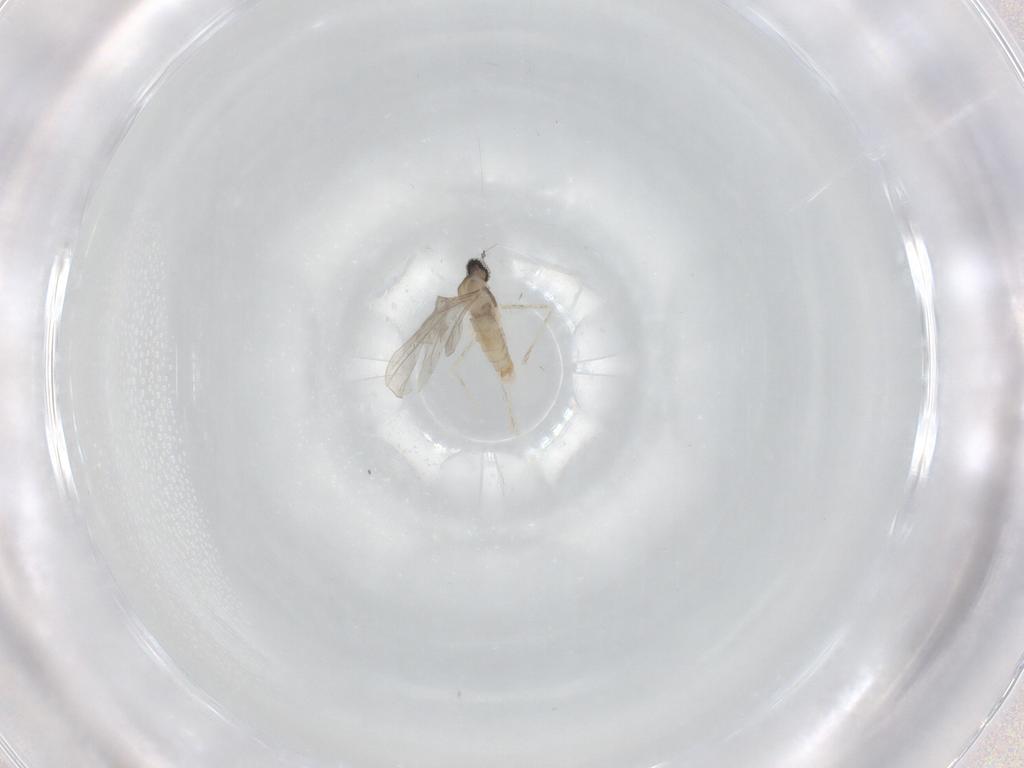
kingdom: Animalia
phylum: Arthropoda
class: Insecta
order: Diptera
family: Cecidomyiidae
